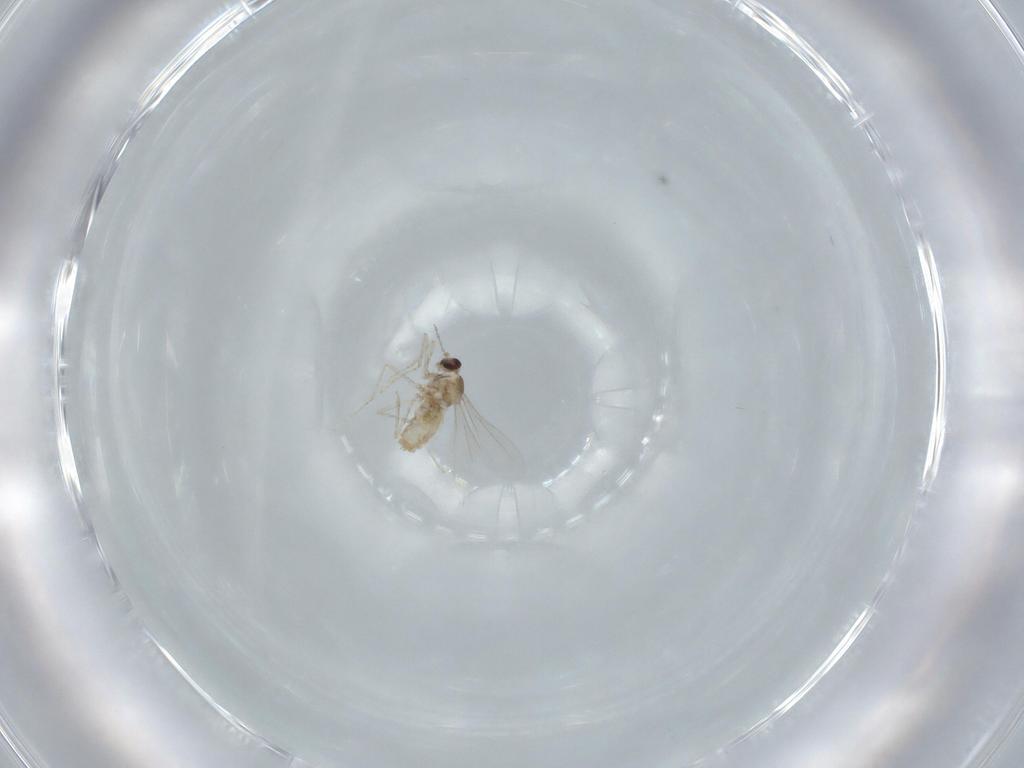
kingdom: Animalia
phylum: Arthropoda
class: Insecta
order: Diptera
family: Cecidomyiidae
